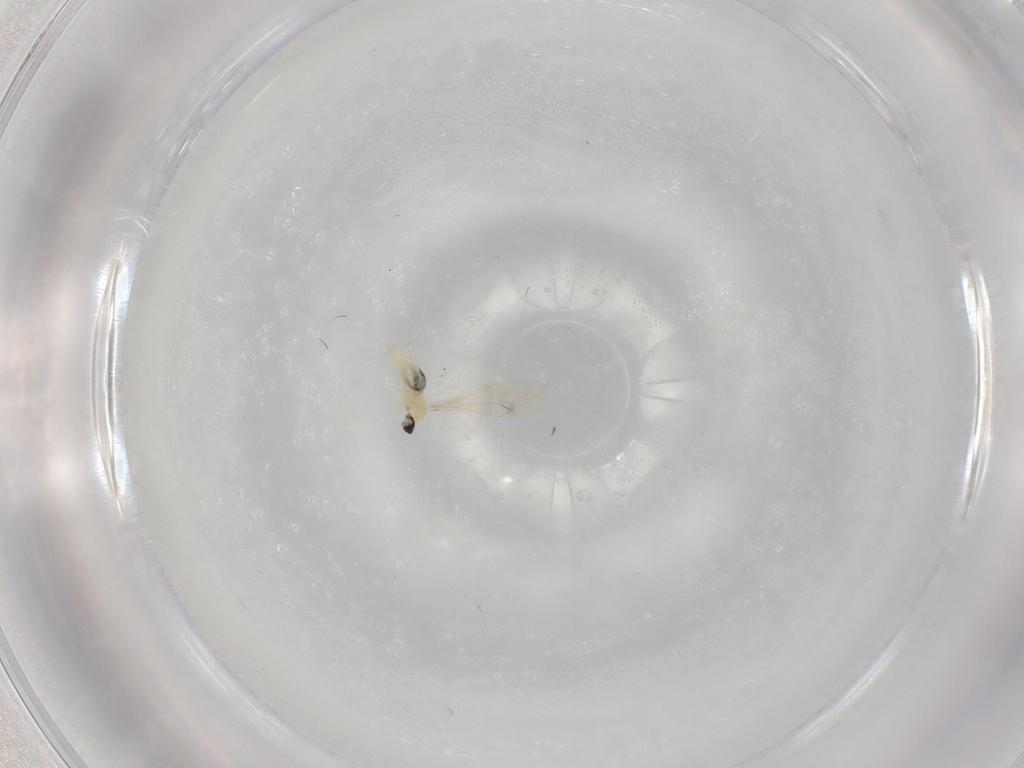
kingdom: Animalia
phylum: Arthropoda
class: Insecta
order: Diptera
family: Cecidomyiidae
